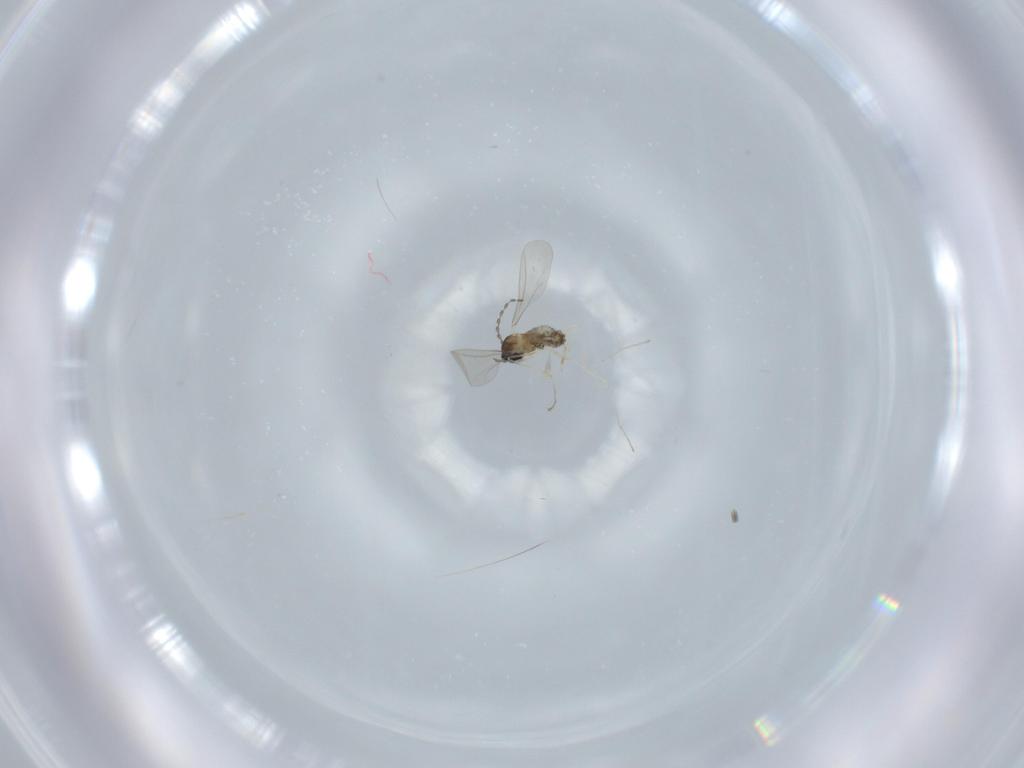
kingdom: Animalia
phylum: Arthropoda
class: Insecta
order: Diptera
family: Cecidomyiidae
